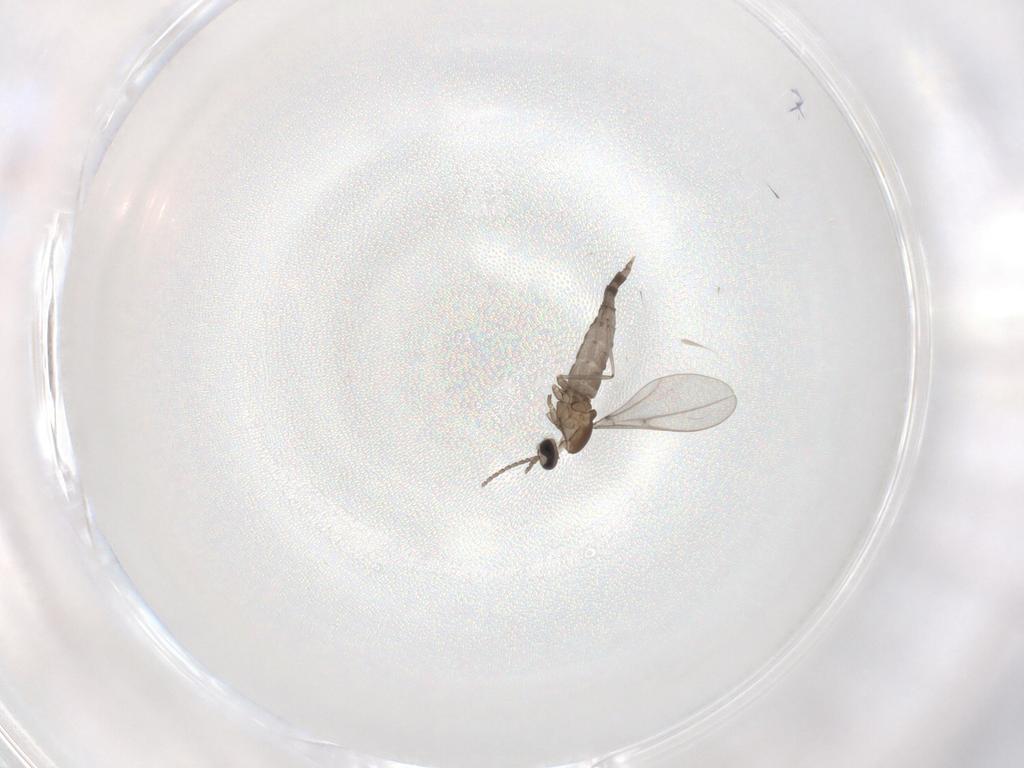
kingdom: Animalia
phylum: Arthropoda
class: Insecta
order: Diptera
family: Cecidomyiidae
